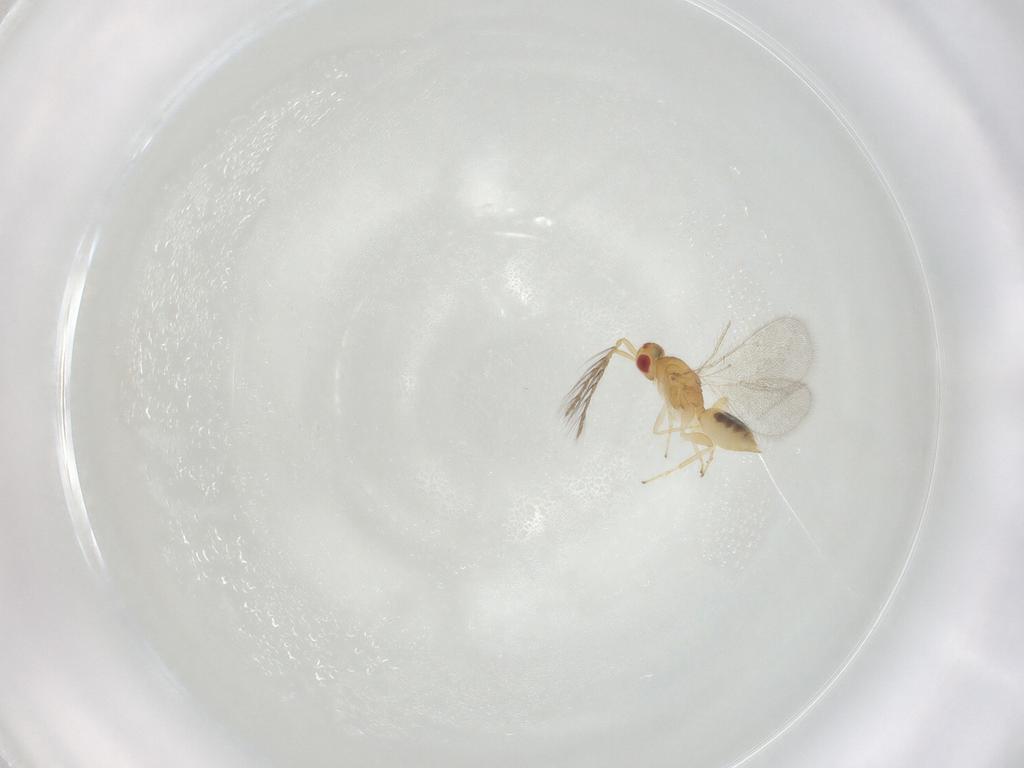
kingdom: Animalia
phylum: Arthropoda
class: Insecta
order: Hymenoptera
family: Eulophidae
